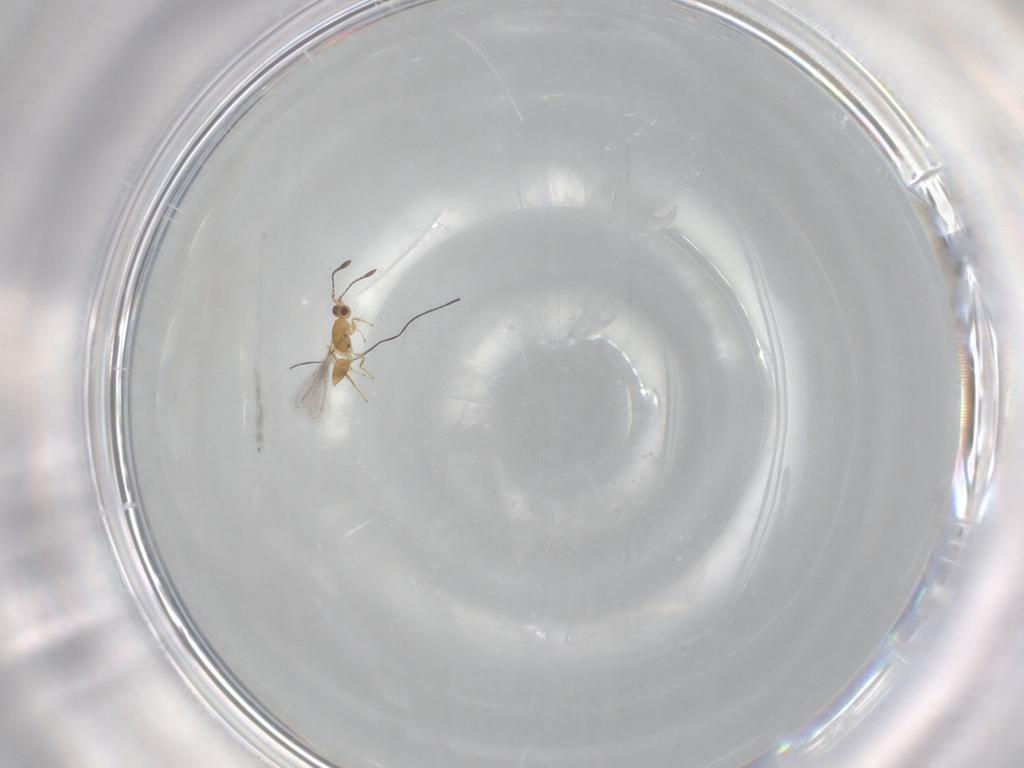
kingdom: Animalia
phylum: Arthropoda
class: Insecta
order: Hymenoptera
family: Mymaridae
